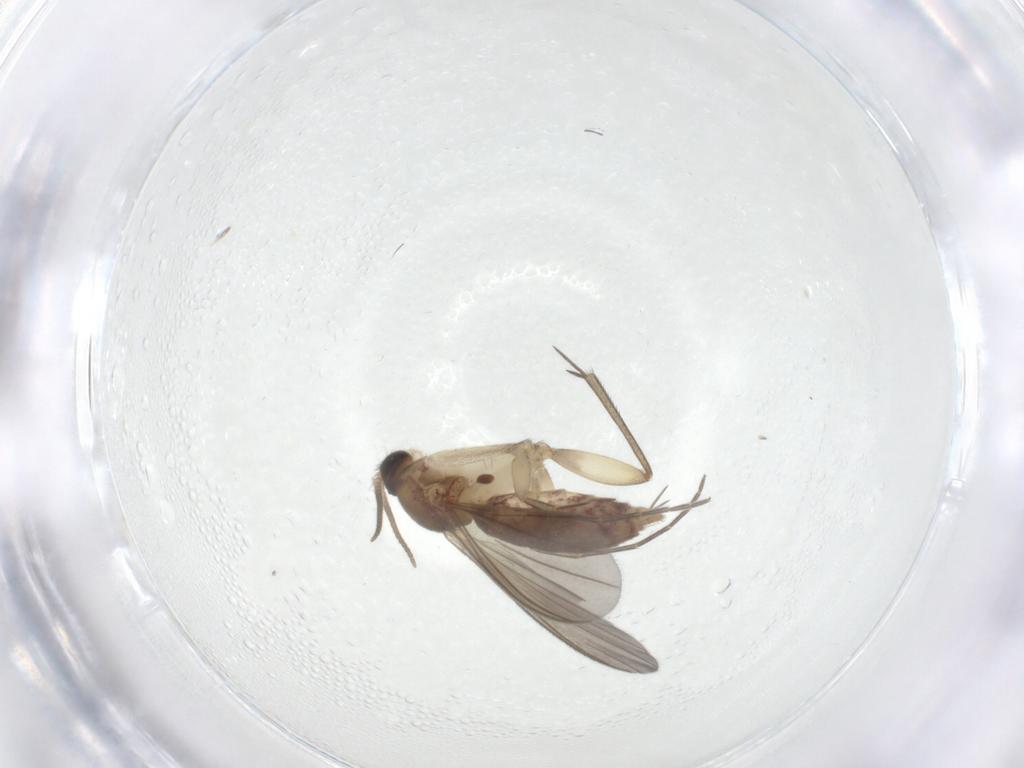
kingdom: Animalia
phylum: Arthropoda
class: Insecta
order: Diptera
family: Mycetophilidae
